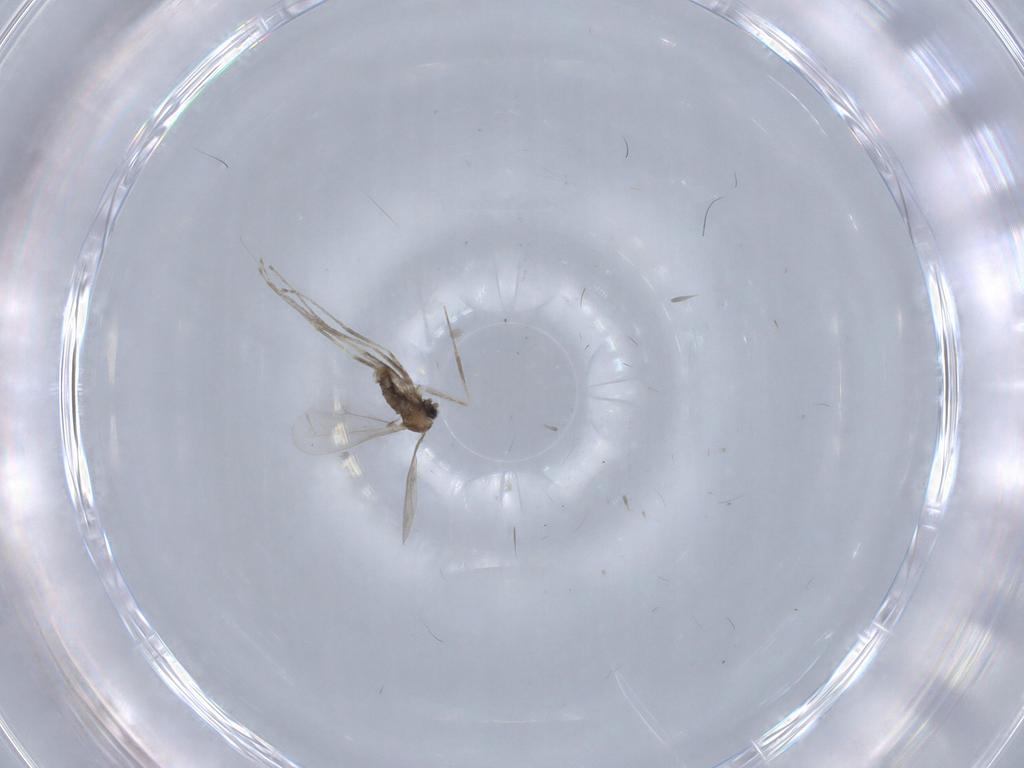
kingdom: Animalia
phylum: Arthropoda
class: Insecta
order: Diptera
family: Cecidomyiidae
